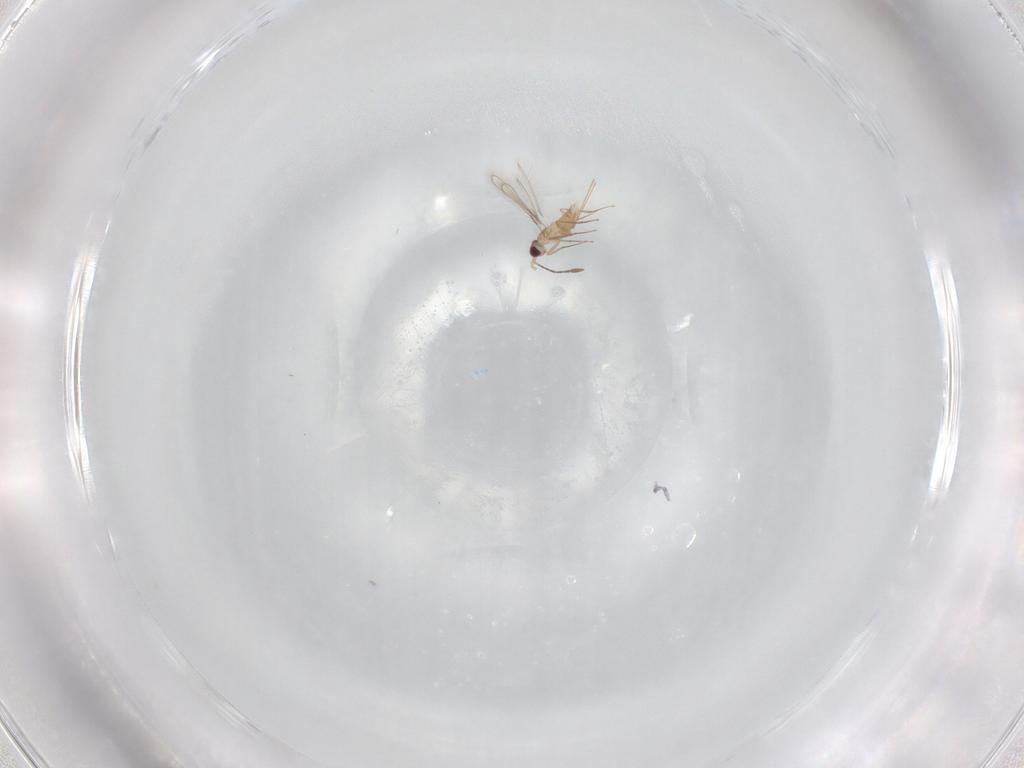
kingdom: Animalia
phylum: Arthropoda
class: Insecta
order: Hymenoptera
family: Mymaridae
